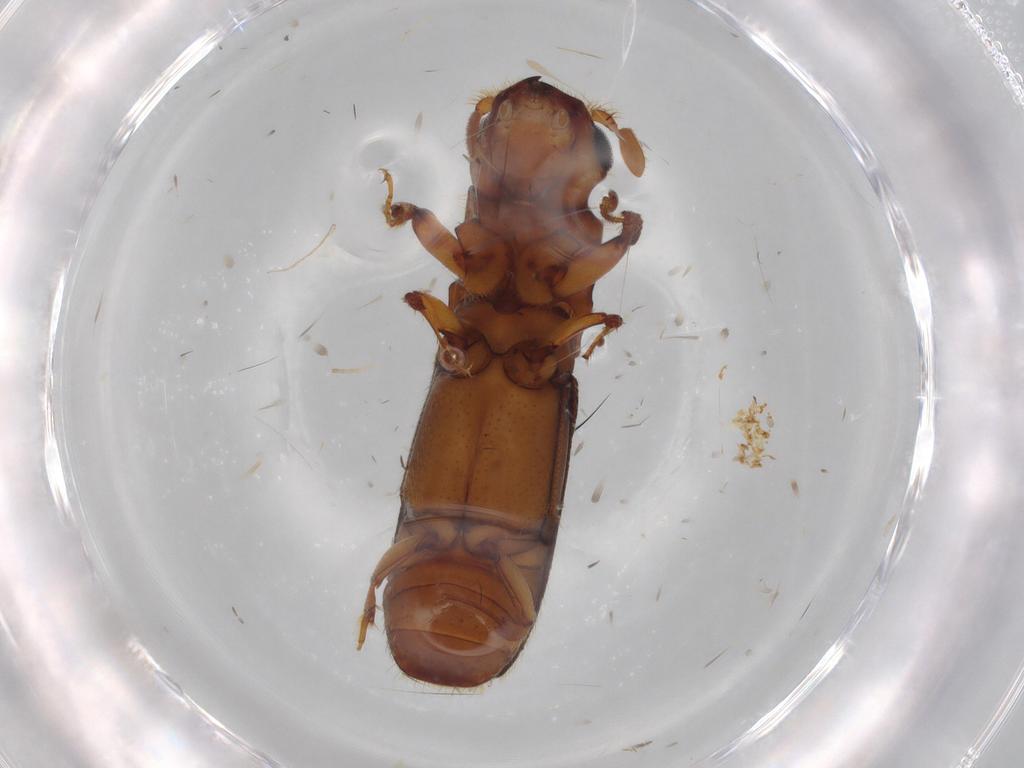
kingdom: Animalia
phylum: Arthropoda
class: Insecta
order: Coleoptera
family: Curculionidae
